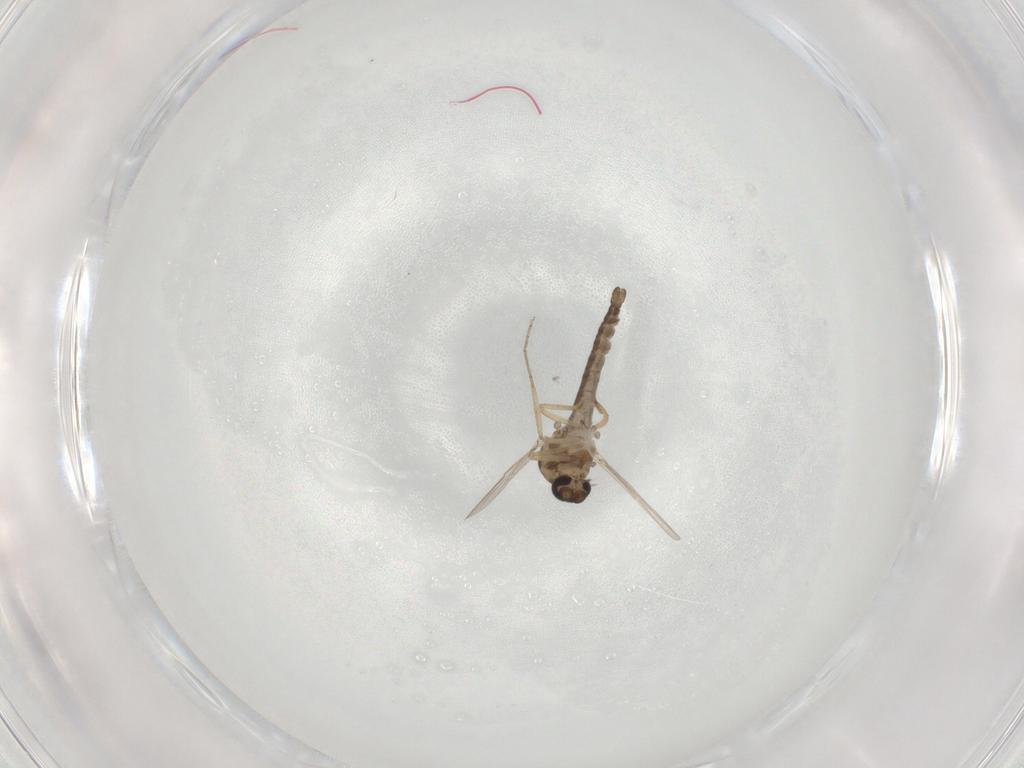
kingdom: Animalia
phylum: Arthropoda
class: Insecta
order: Diptera
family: Ceratopogonidae
